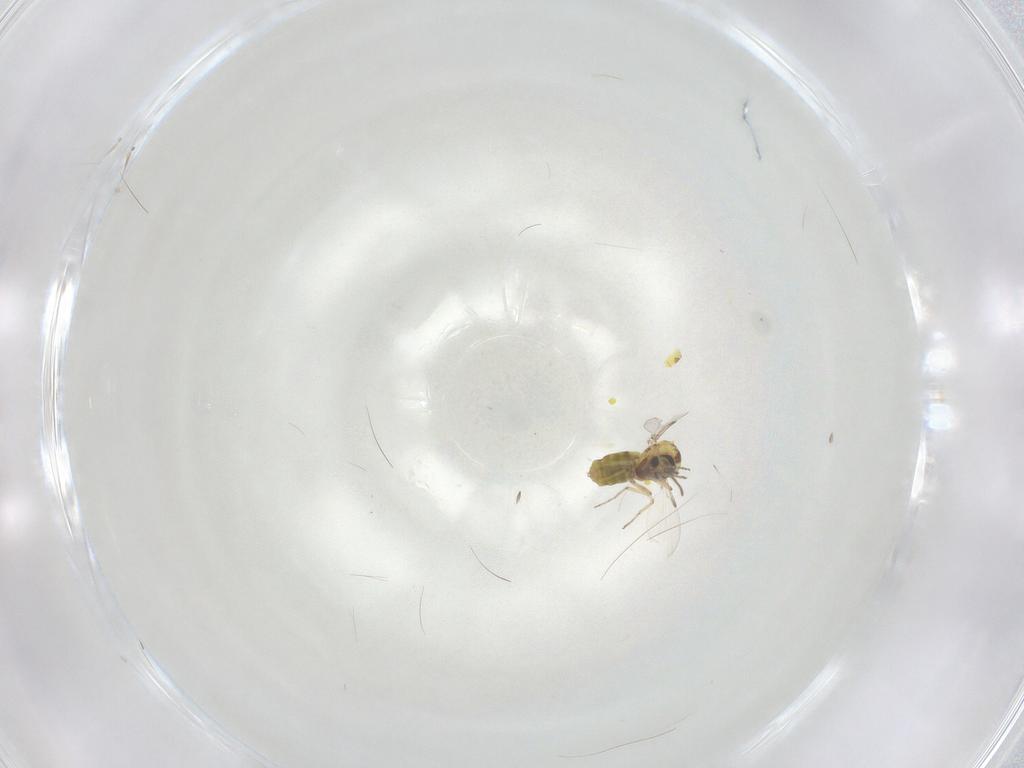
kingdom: Animalia
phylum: Arthropoda
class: Insecta
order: Diptera
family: Ceratopogonidae
